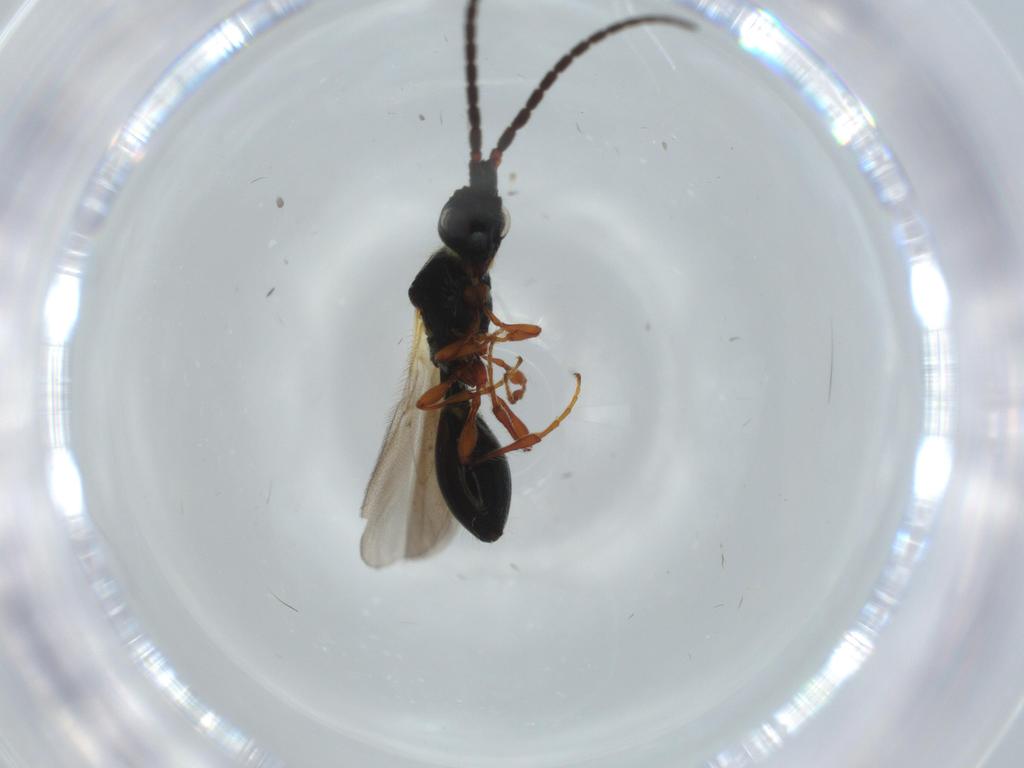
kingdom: Animalia
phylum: Arthropoda
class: Insecta
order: Hymenoptera
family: Diapriidae
